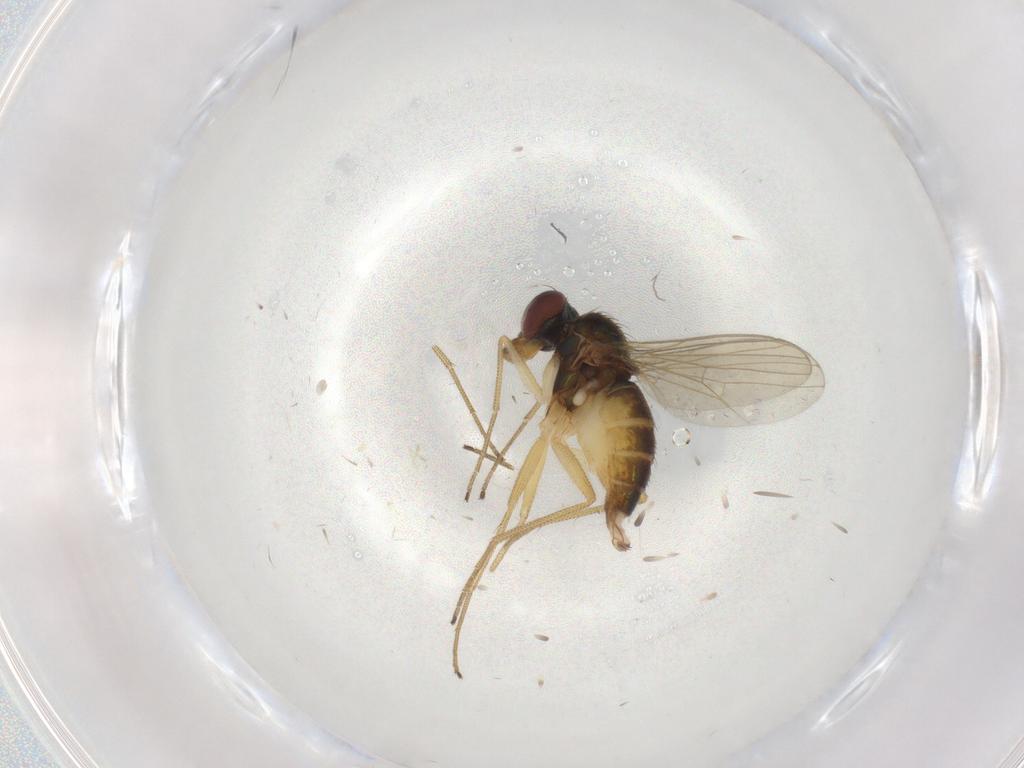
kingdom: Animalia
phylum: Arthropoda
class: Insecta
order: Diptera
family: Dolichopodidae
